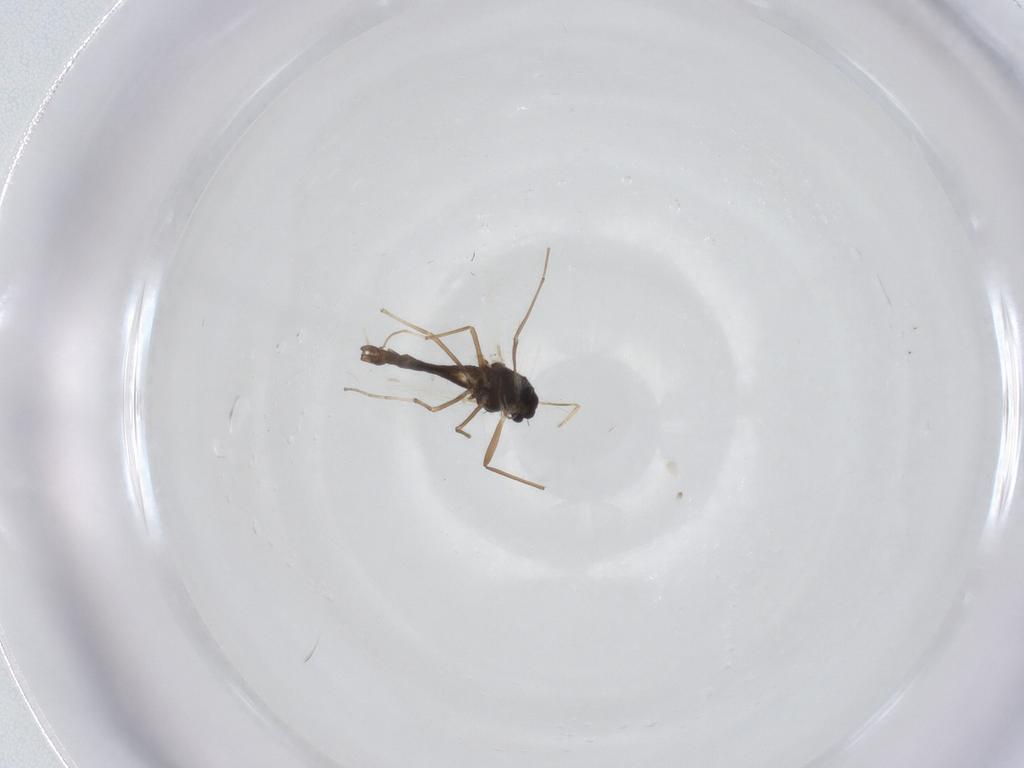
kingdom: Animalia
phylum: Arthropoda
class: Insecta
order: Diptera
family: Chironomidae
